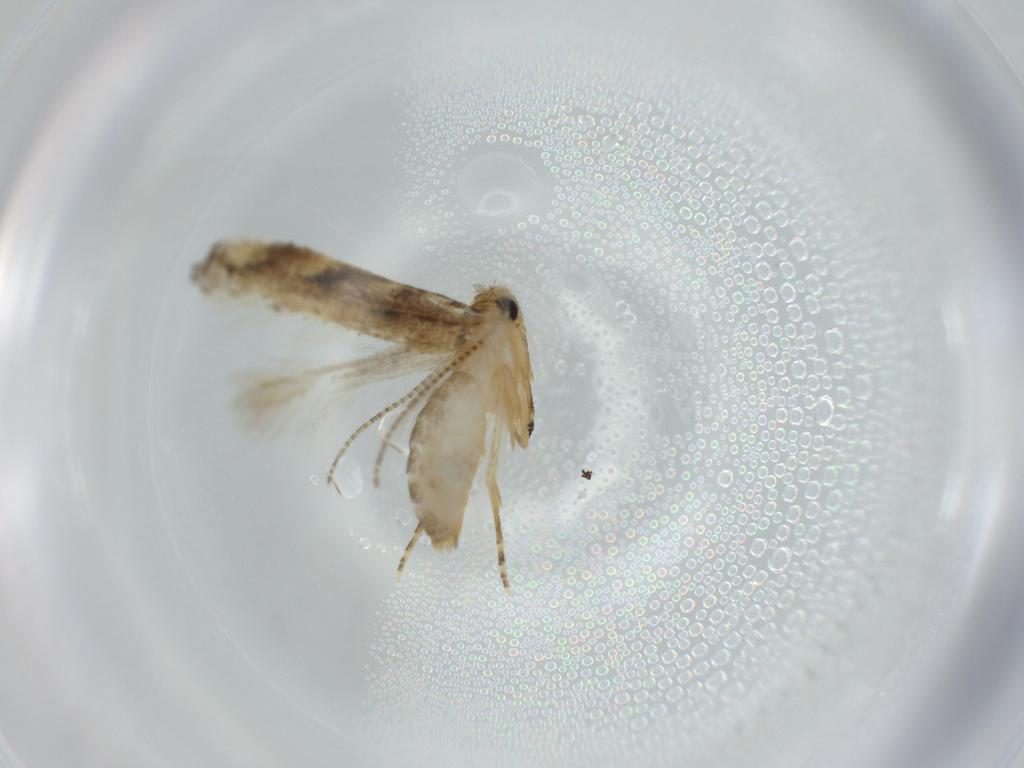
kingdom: Animalia
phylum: Arthropoda
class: Insecta
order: Lepidoptera
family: Bucculatricidae
